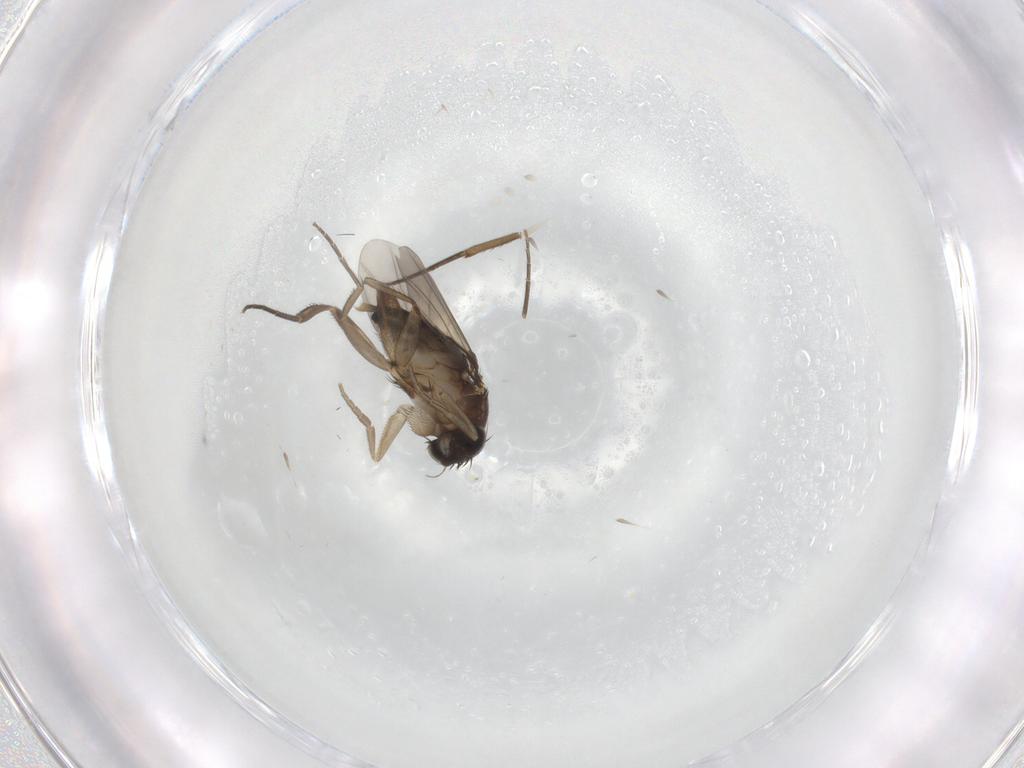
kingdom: Animalia
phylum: Arthropoda
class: Insecta
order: Diptera
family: Phoridae
